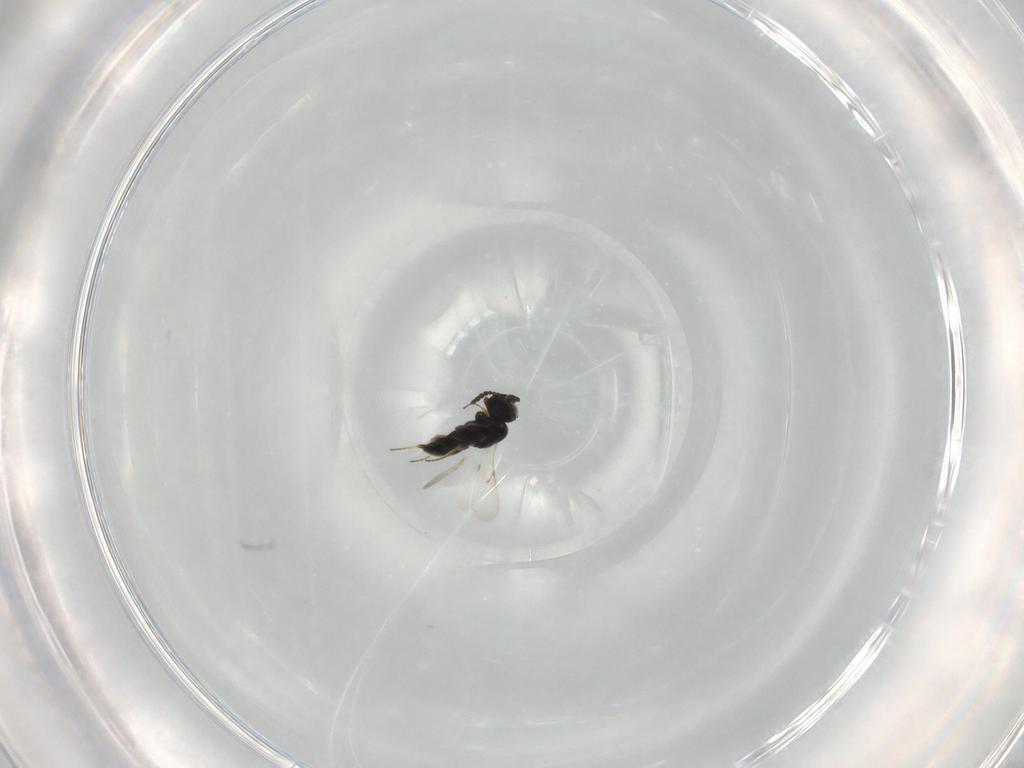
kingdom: Animalia
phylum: Arthropoda
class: Insecta
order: Hymenoptera
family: Scelionidae
